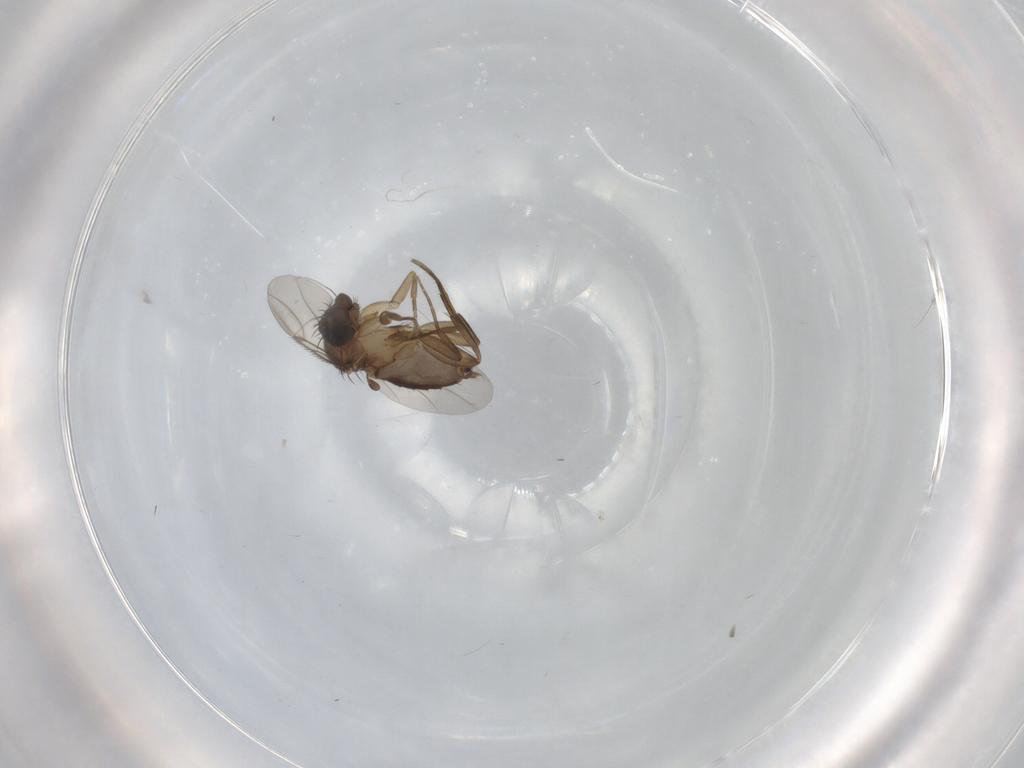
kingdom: Animalia
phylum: Arthropoda
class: Insecta
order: Diptera
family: Phoridae
